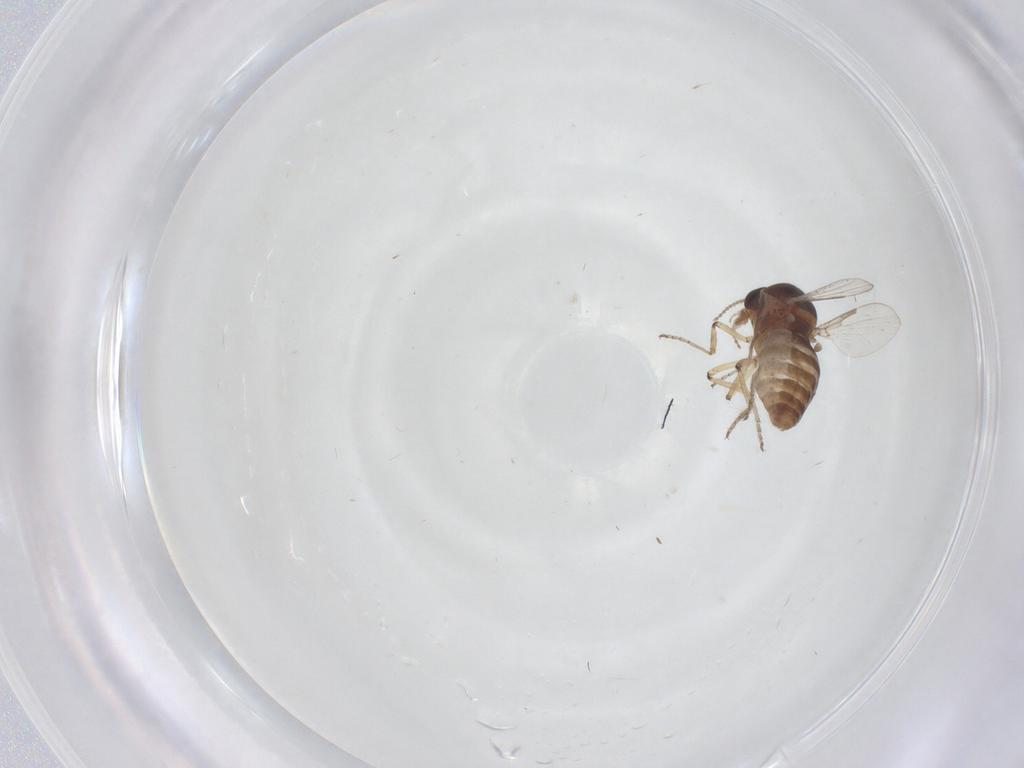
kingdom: Animalia
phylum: Arthropoda
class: Insecta
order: Diptera
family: Ceratopogonidae
